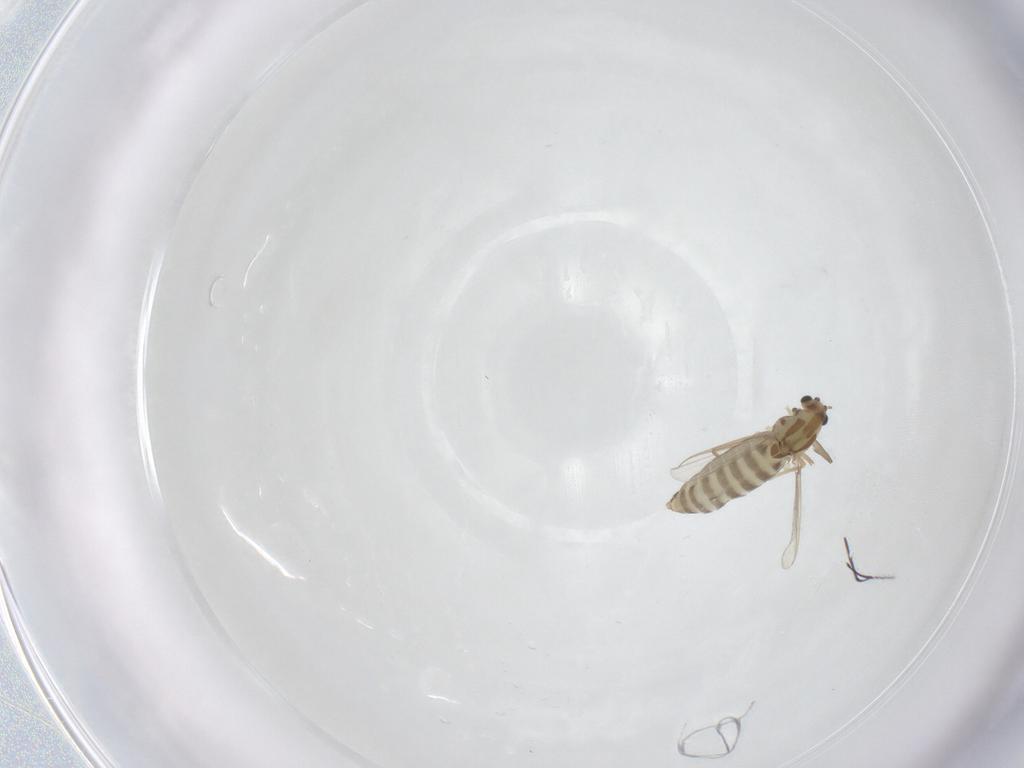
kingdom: Animalia
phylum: Arthropoda
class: Insecta
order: Diptera
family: Chironomidae
